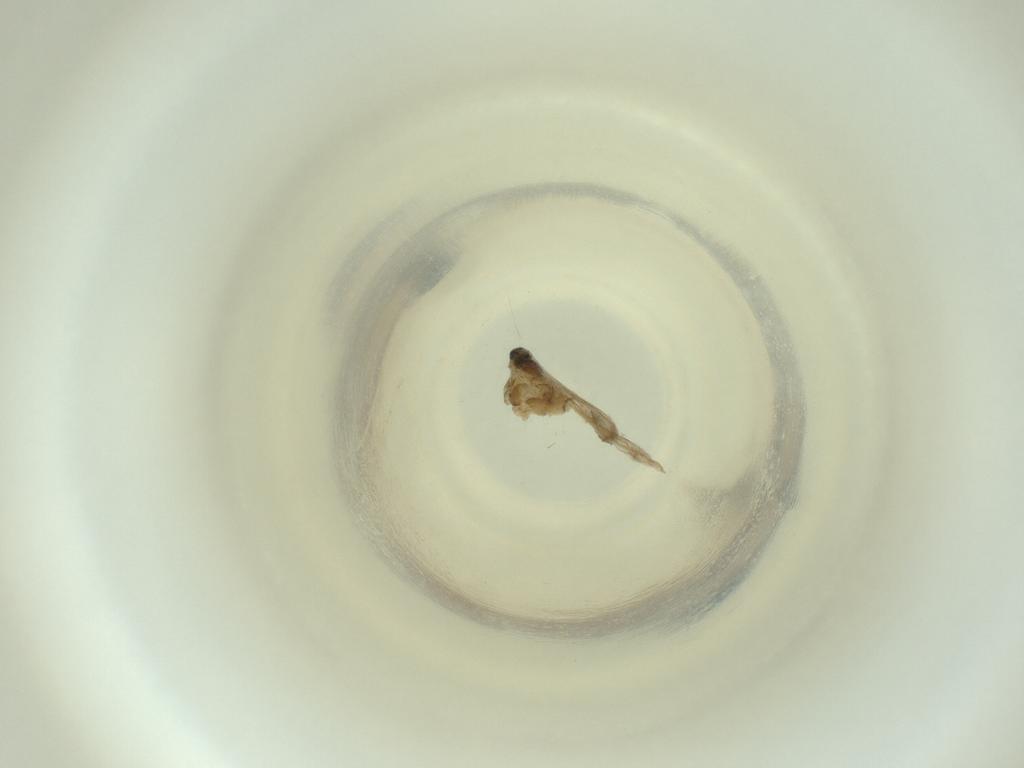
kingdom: Animalia
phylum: Arthropoda
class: Insecta
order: Diptera
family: Cecidomyiidae
